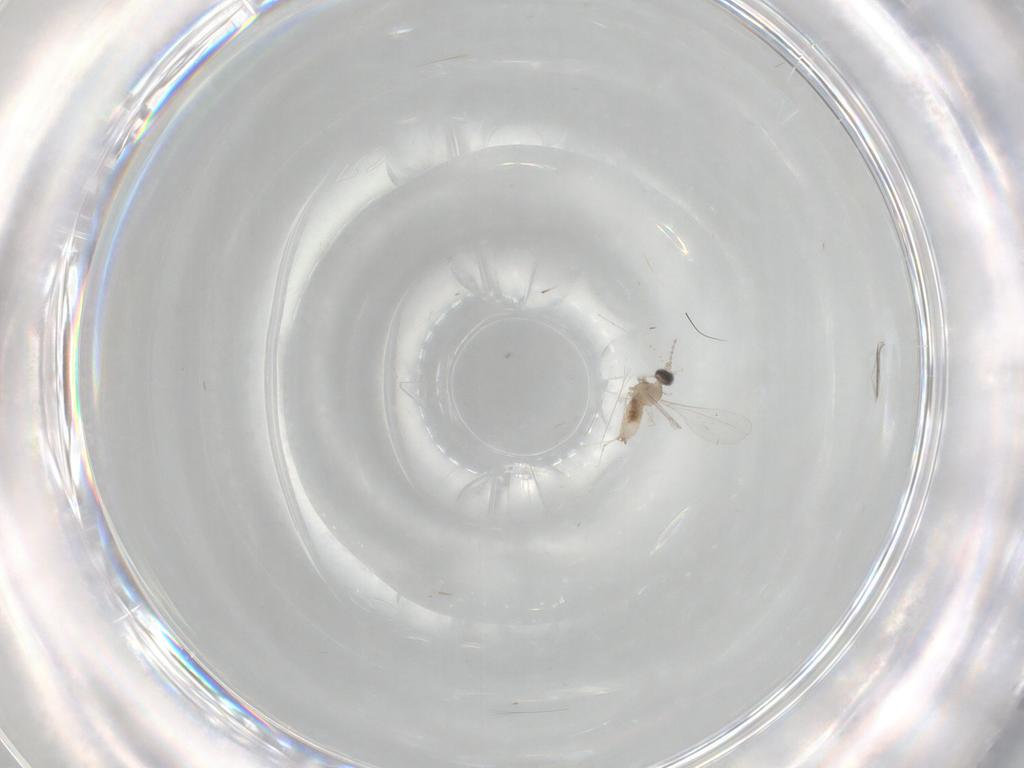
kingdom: Animalia
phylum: Arthropoda
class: Insecta
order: Diptera
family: Cecidomyiidae
